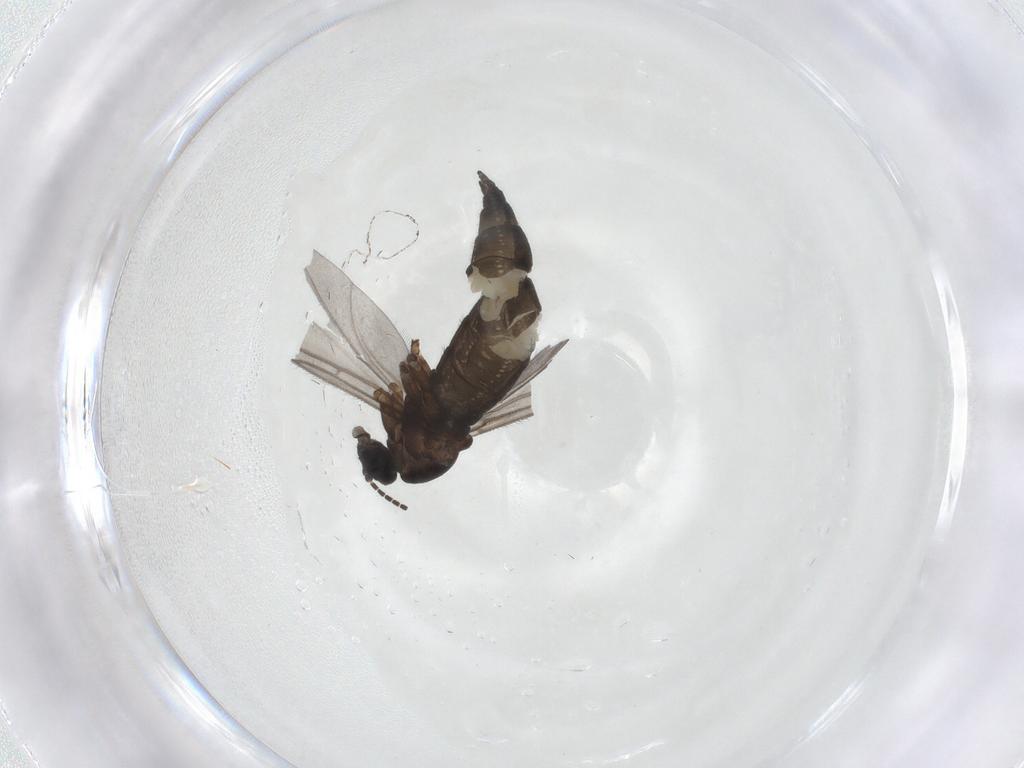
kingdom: Animalia
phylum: Arthropoda
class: Insecta
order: Diptera
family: Sciaridae
